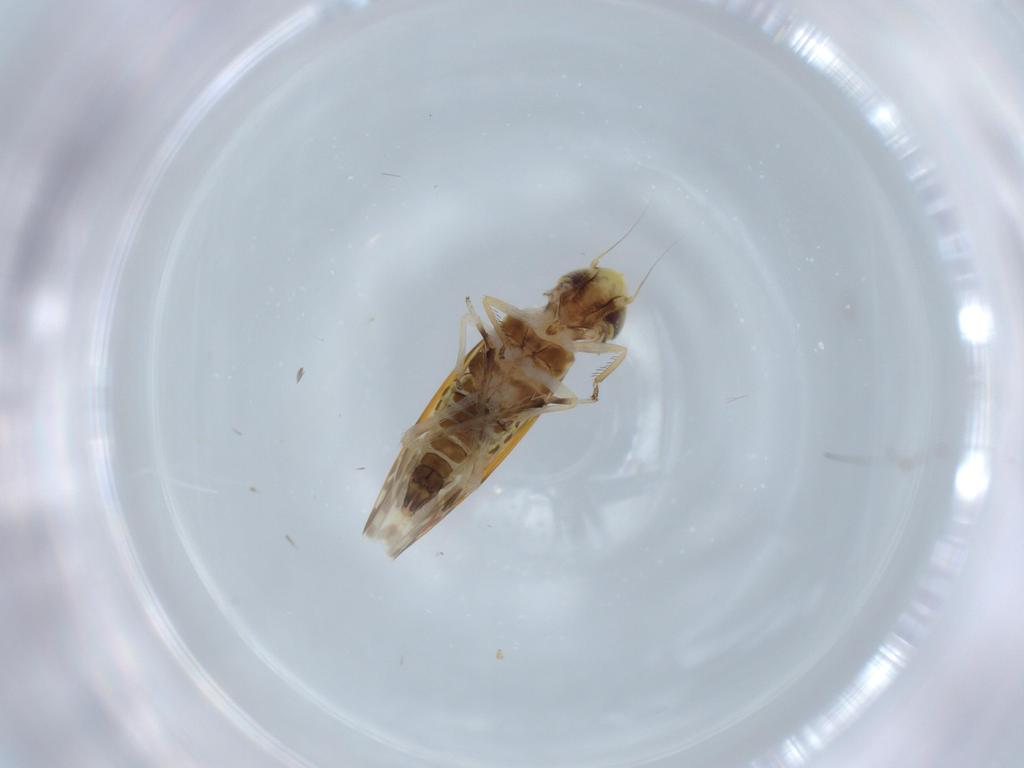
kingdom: Animalia
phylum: Arthropoda
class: Insecta
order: Hemiptera
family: Cicadellidae
